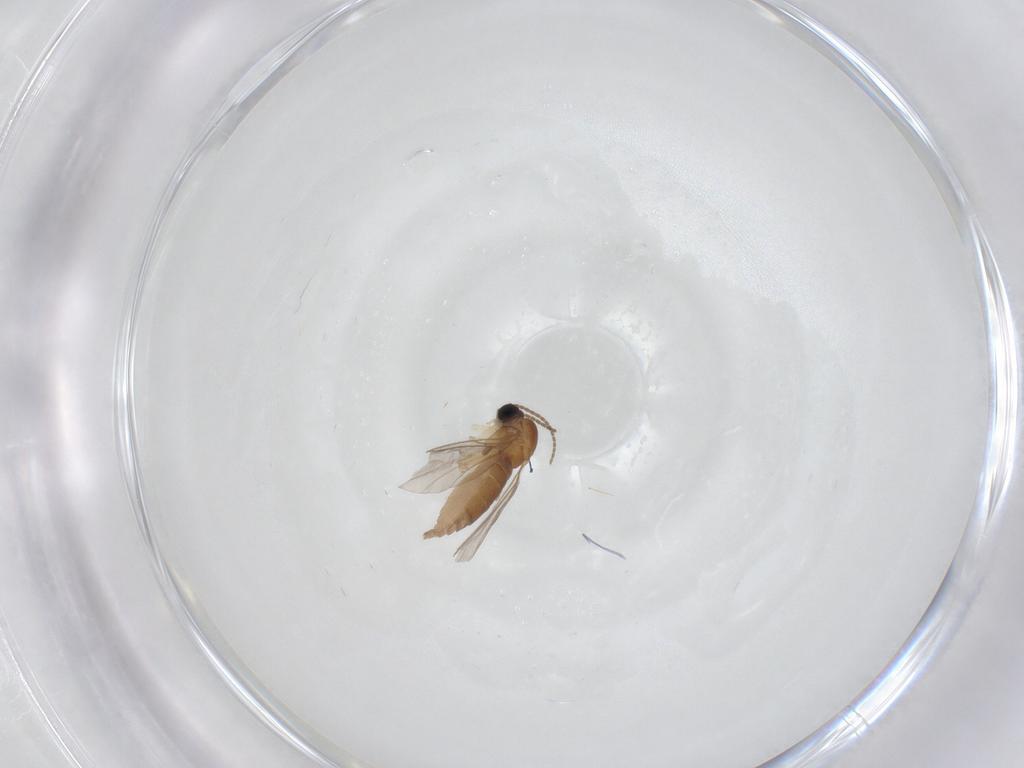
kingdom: Animalia
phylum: Arthropoda
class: Insecta
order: Diptera
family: Sciaridae
